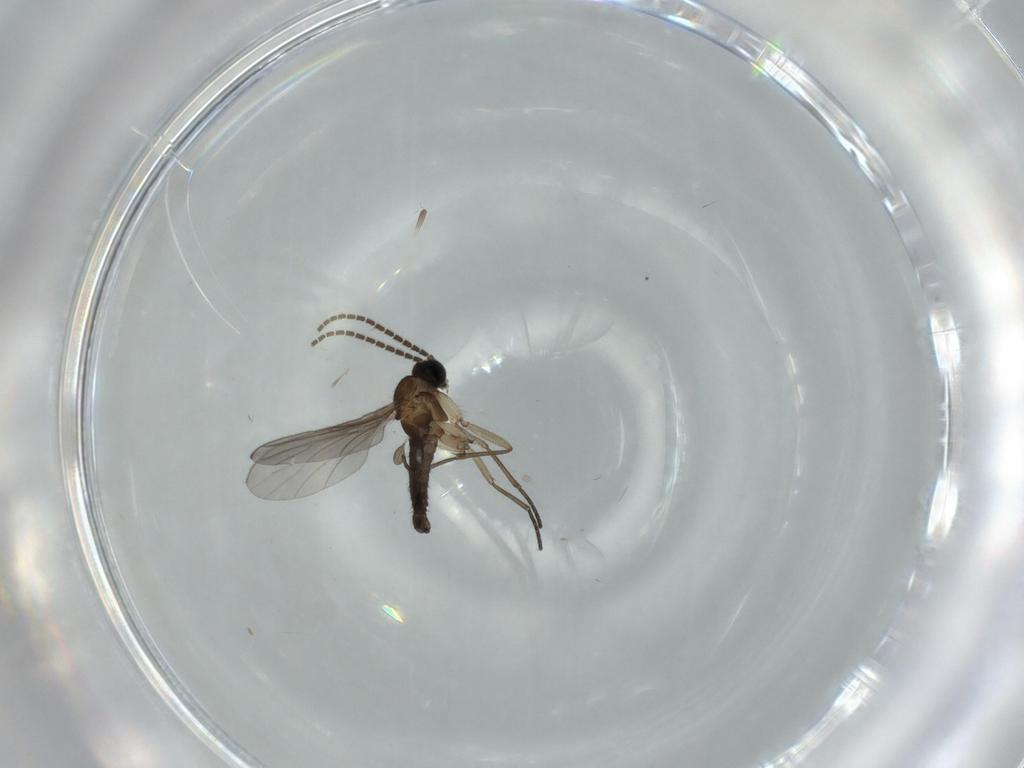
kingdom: Animalia
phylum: Arthropoda
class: Insecta
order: Diptera
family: Sciaridae
